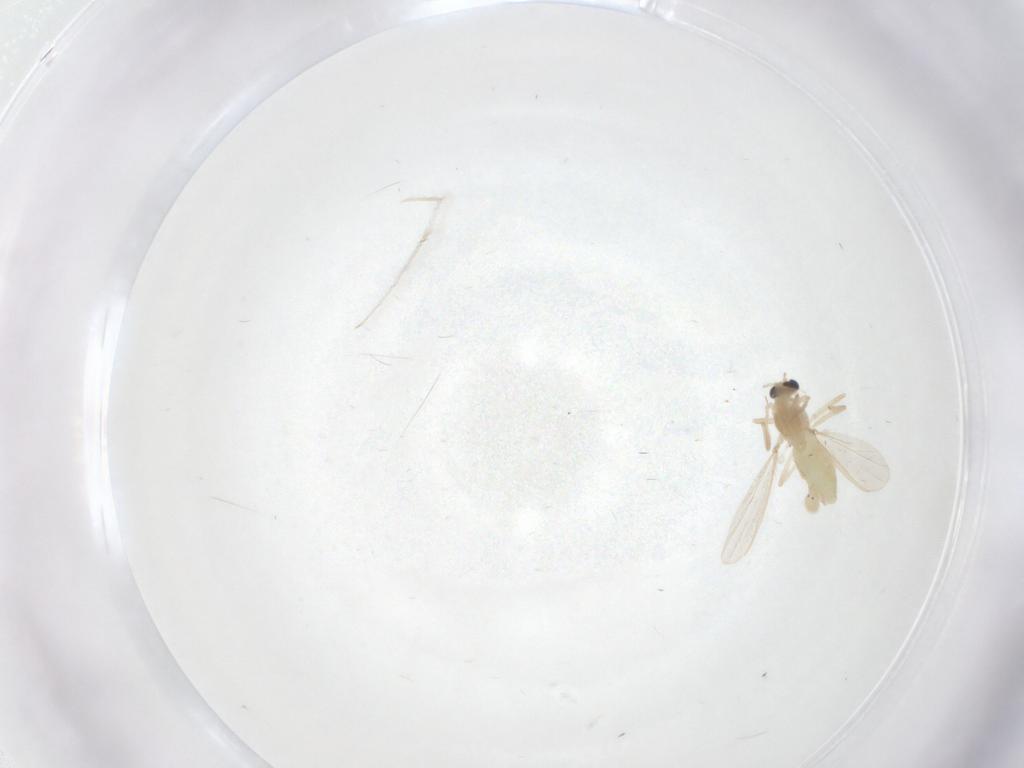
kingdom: Animalia
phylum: Arthropoda
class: Insecta
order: Diptera
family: Chironomidae
